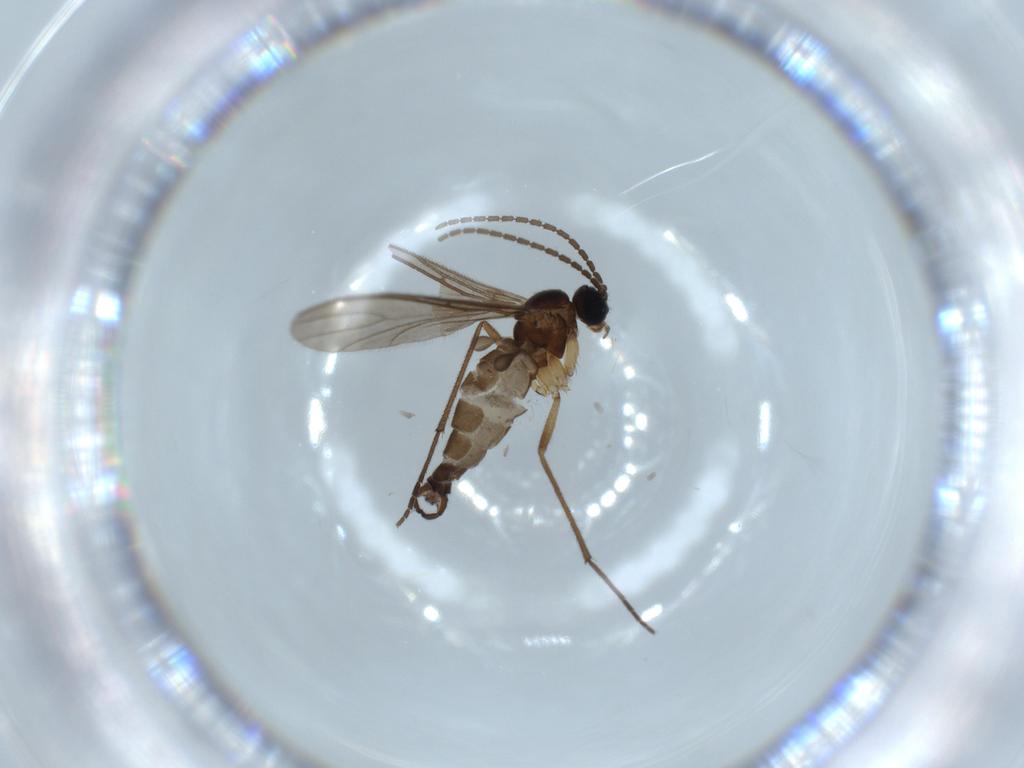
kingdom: Animalia
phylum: Arthropoda
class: Insecta
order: Diptera
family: Sciaridae
